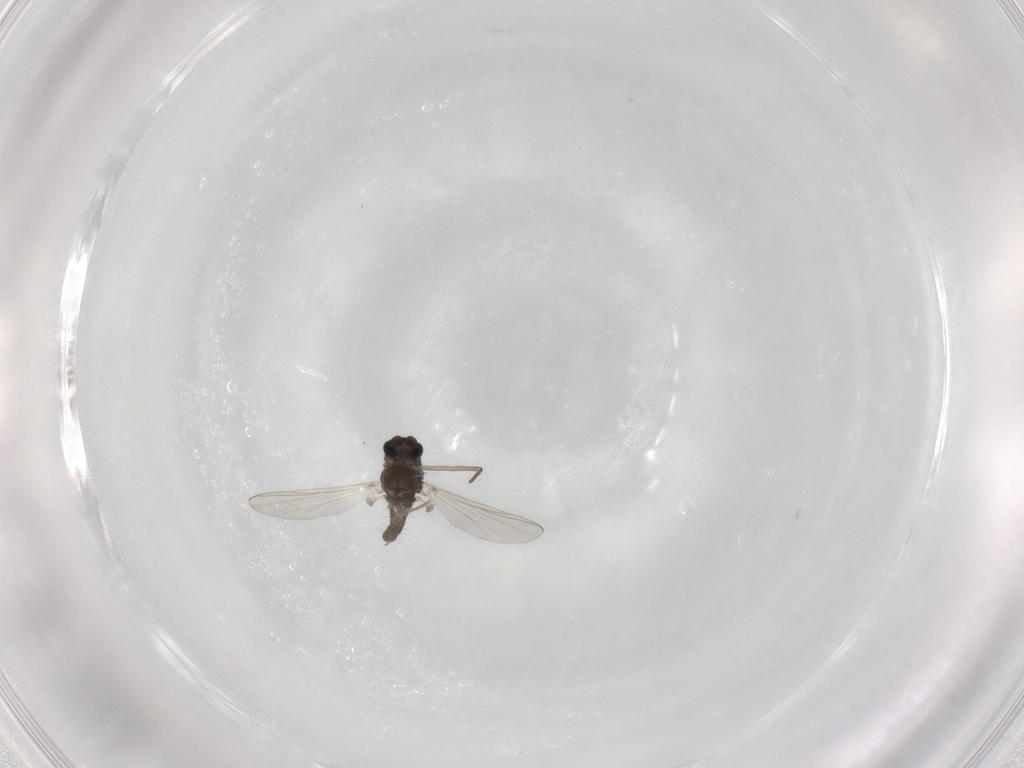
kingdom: Animalia
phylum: Arthropoda
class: Insecta
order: Diptera
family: Chironomidae
